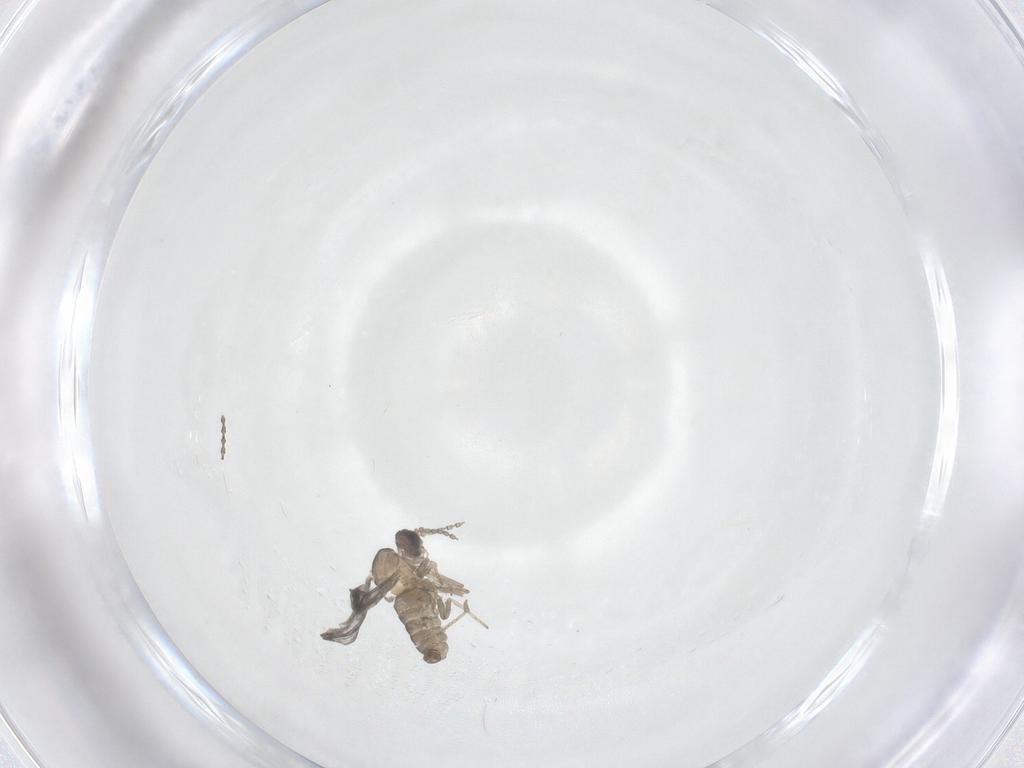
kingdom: Animalia
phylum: Arthropoda
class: Insecta
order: Diptera
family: Chironomidae
